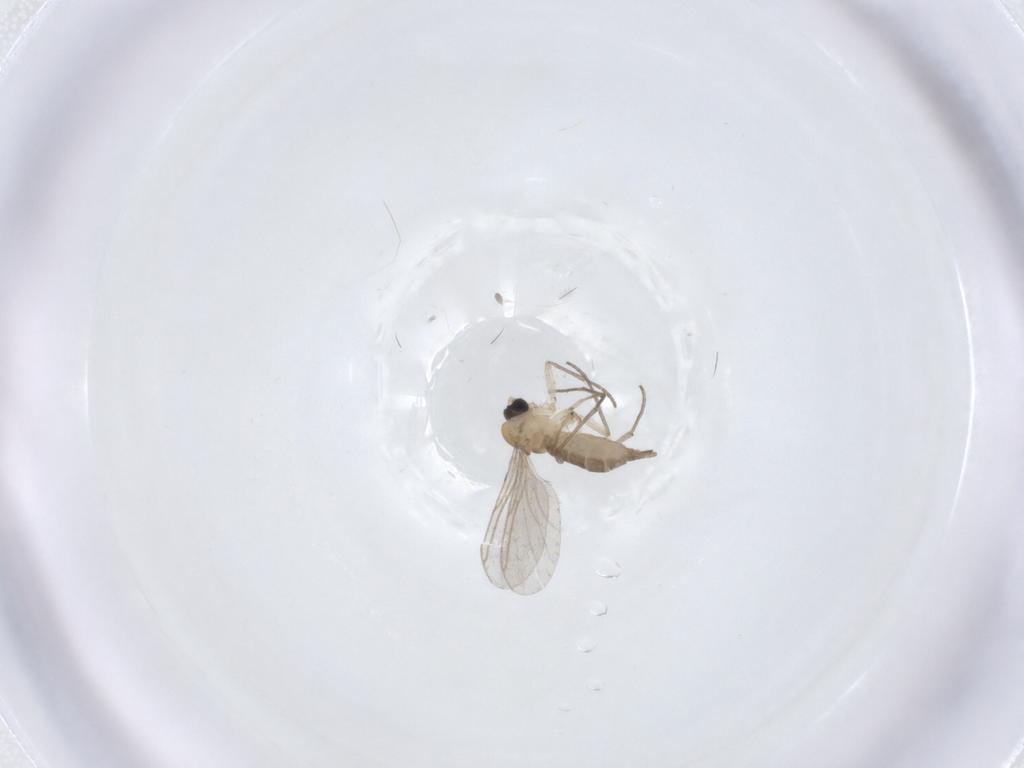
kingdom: Animalia
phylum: Arthropoda
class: Insecta
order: Diptera
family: Sciaridae
